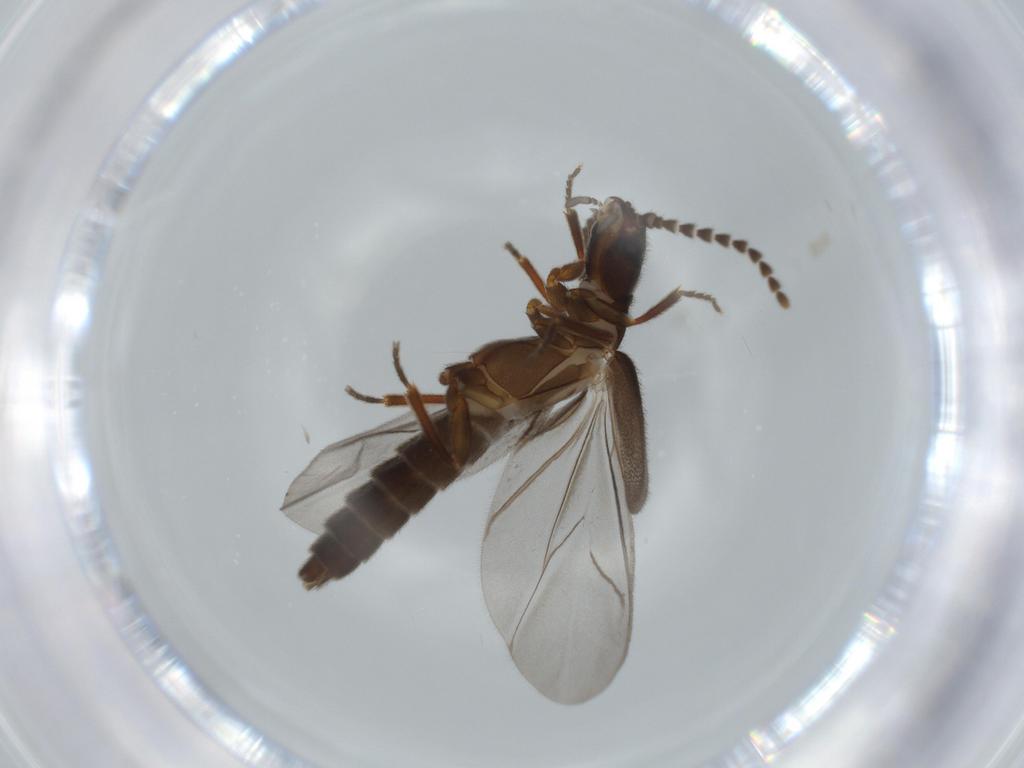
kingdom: Animalia
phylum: Arthropoda
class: Insecta
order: Coleoptera
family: Omethidae
